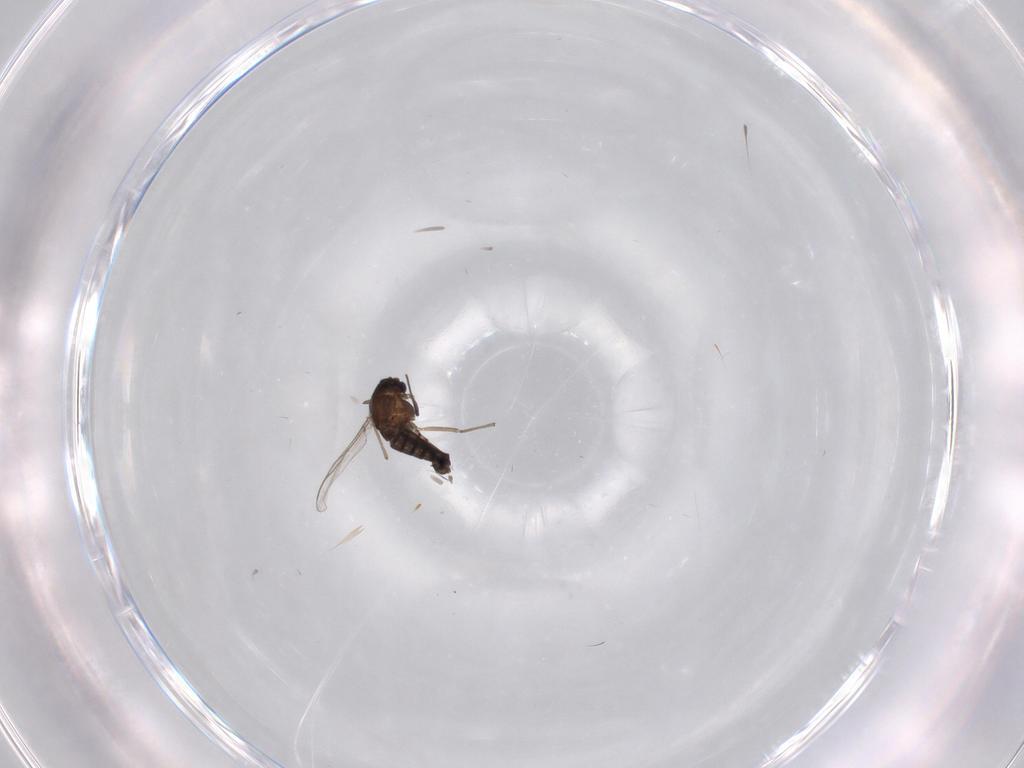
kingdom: Animalia
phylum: Arthropoda
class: Insecta
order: Diptera
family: Chironomidae
